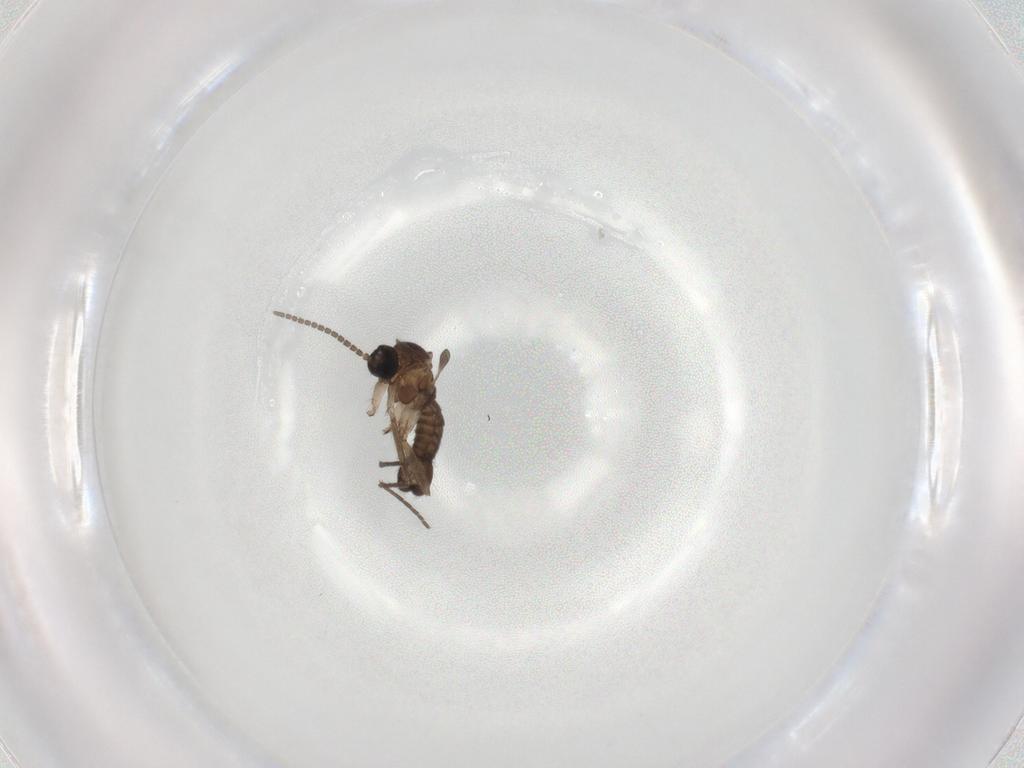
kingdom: Animalia
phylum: Arthropoda
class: Insecta
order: Diptera
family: Sciaridae
